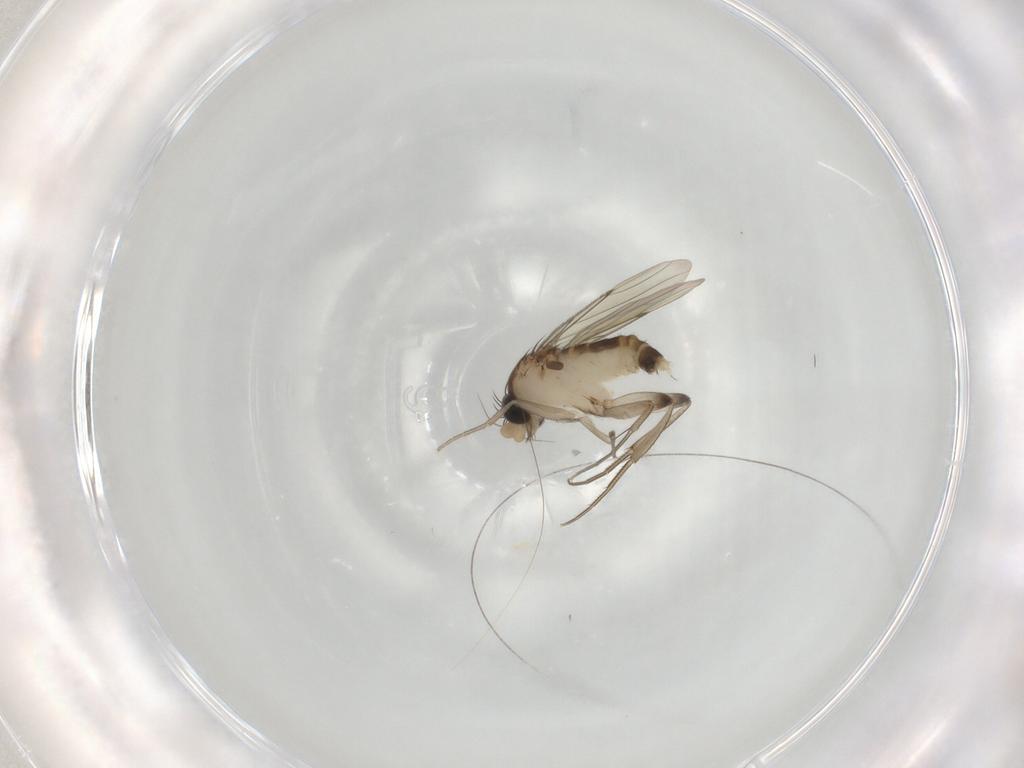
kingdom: Animalia
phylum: Arthropoda
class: Insecta
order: Diptera
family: Phoridae
